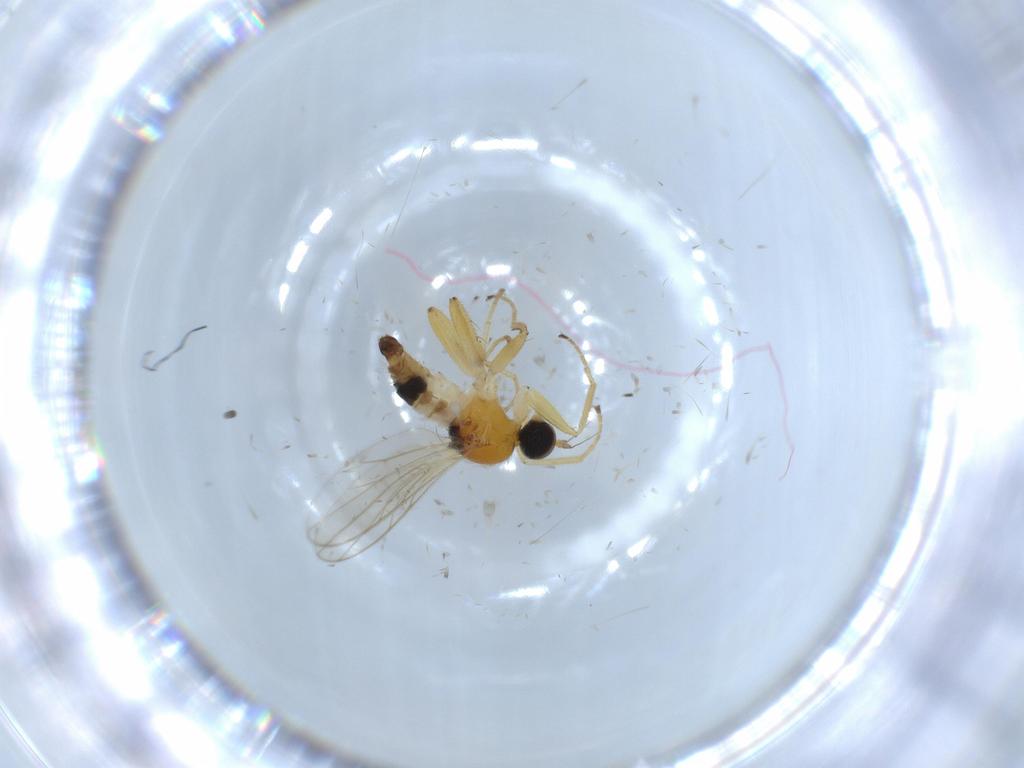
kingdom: Animalia
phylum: Arthropoda
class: Insecta
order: Diptera
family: Hybotidae
